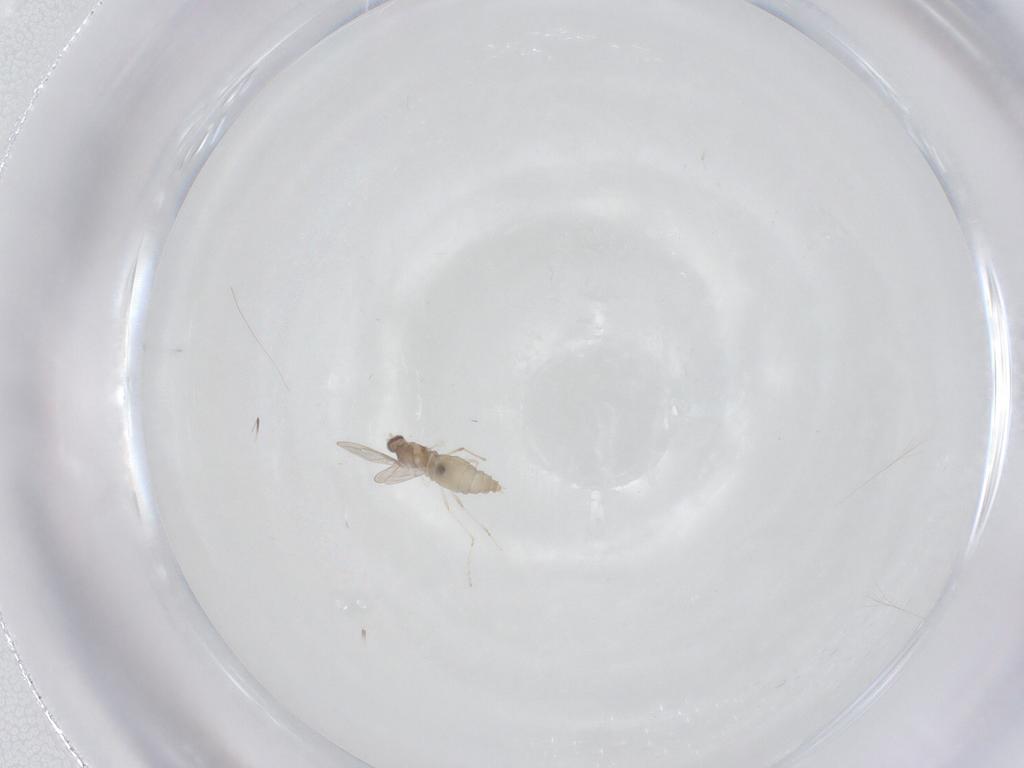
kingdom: Animalia
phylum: Arthropoda
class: Insecta
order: Diptera
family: Cecidomyiidae
